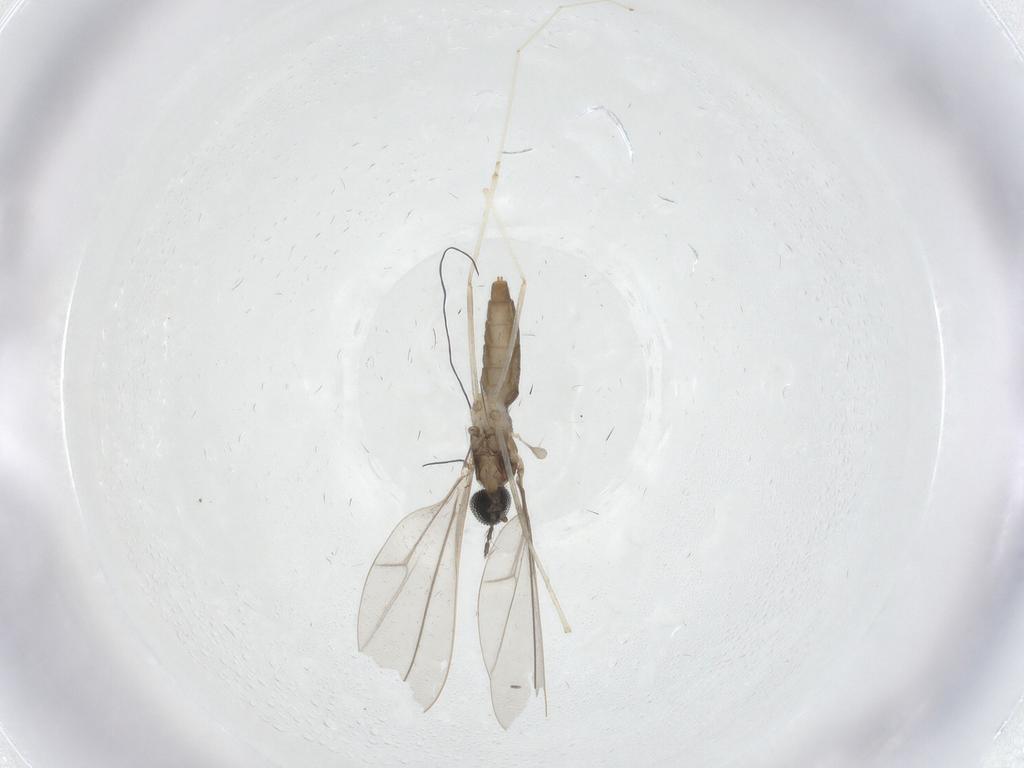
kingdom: Animalia
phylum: Arthropoda
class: Insecta
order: Diptera
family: Cecidomyiidae
